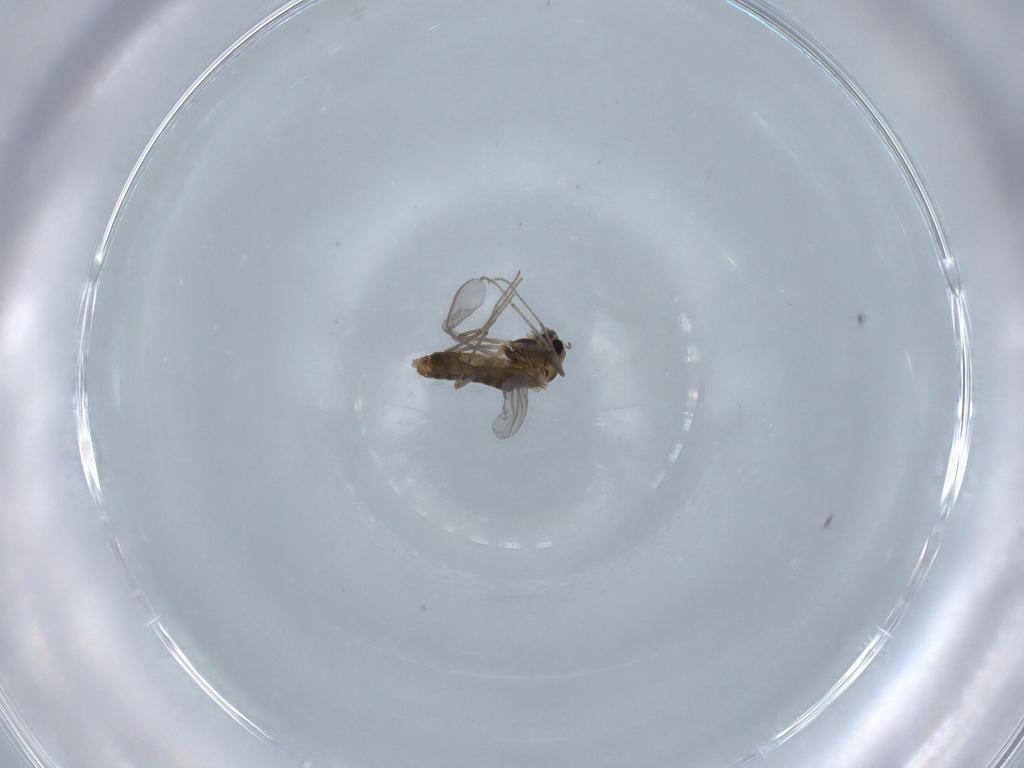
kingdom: Animalia
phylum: Arthropoda
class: Insecta
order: Diptera
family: Chironomidae
